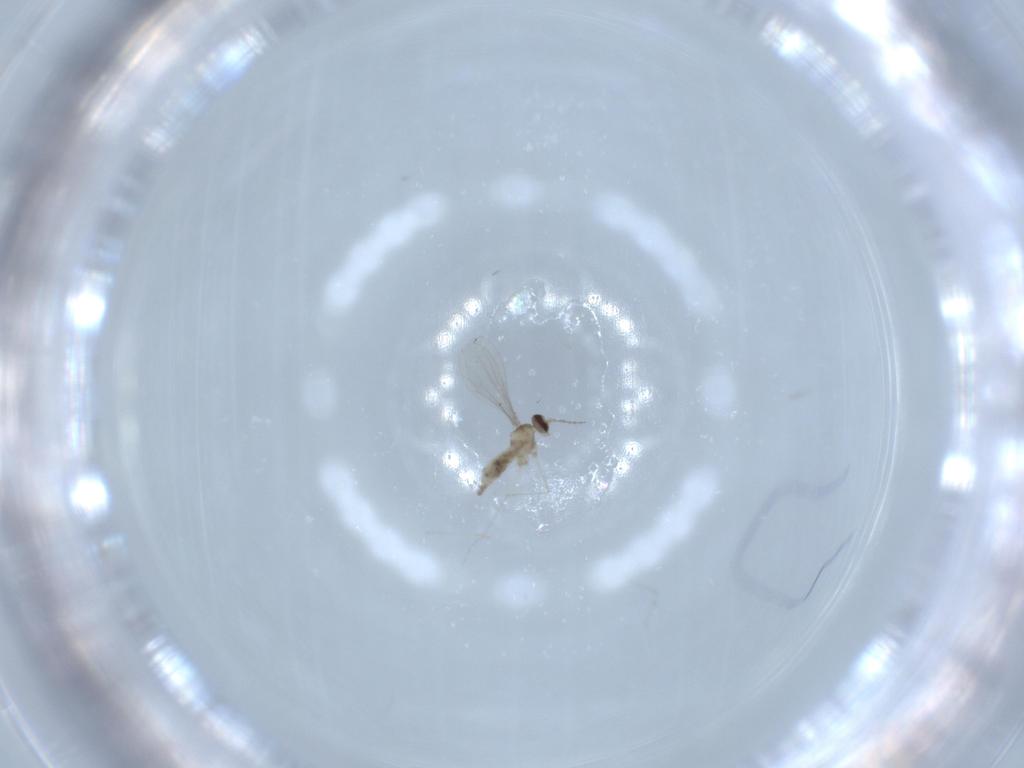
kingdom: Animalia
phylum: Arthropoda
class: Insecta
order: Diptera
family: Cecidomyiidae
